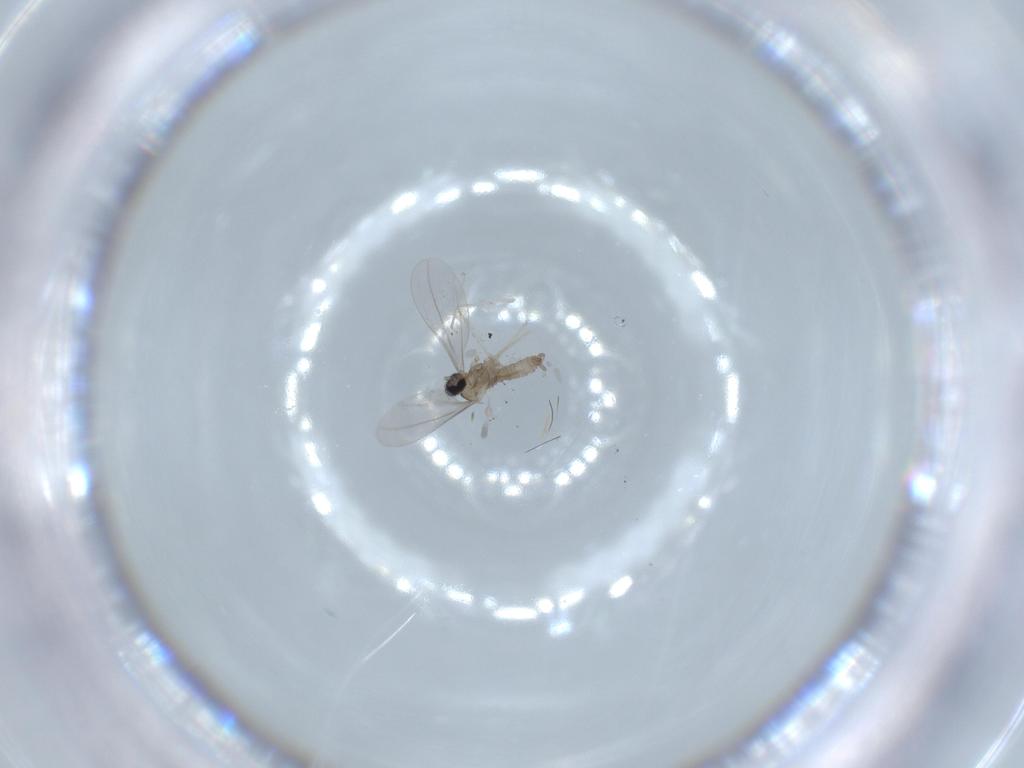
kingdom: Animalia
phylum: Arthropoda
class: Insecta
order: Diptera
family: Cecidomyiidae
